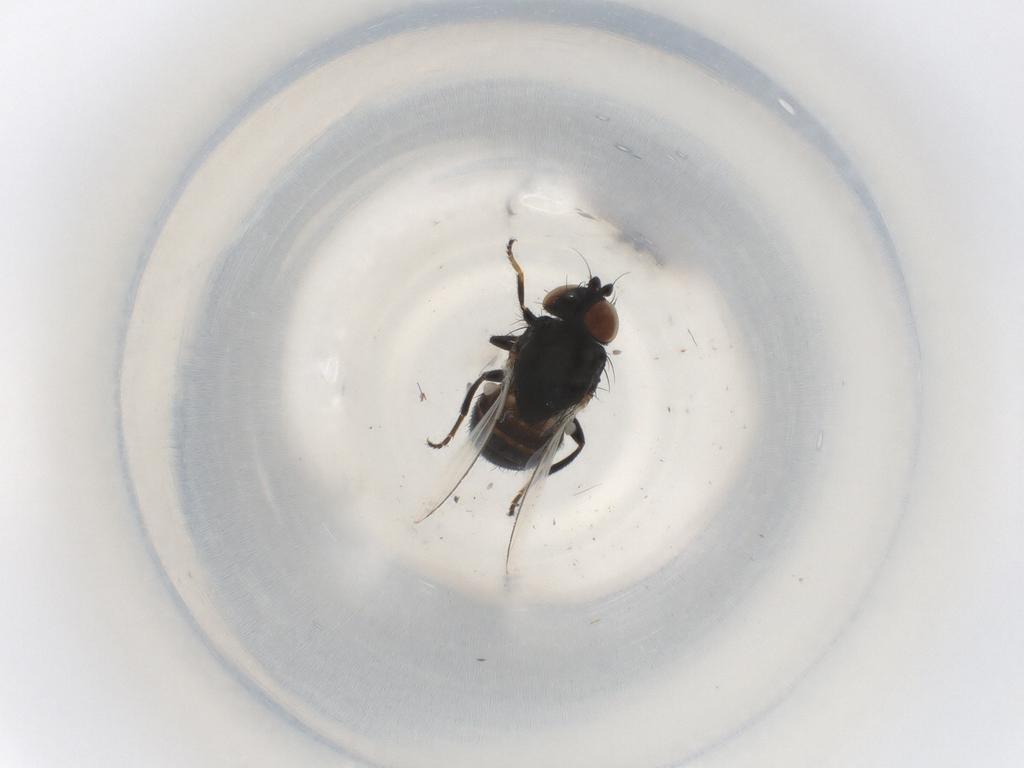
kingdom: Animalia
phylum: Arthropoda
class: Insecta
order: Diptera
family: Milichiidae
